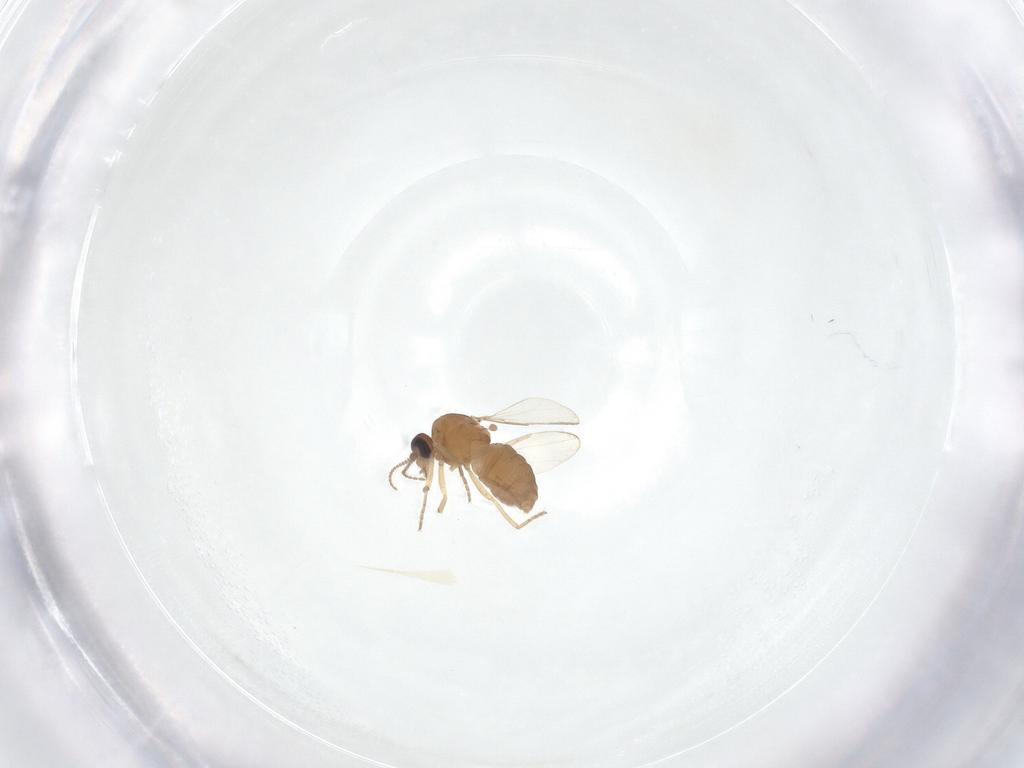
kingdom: Animalia
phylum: Arthropoda
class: Insecta
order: Diptera
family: Ceratopogonidae
